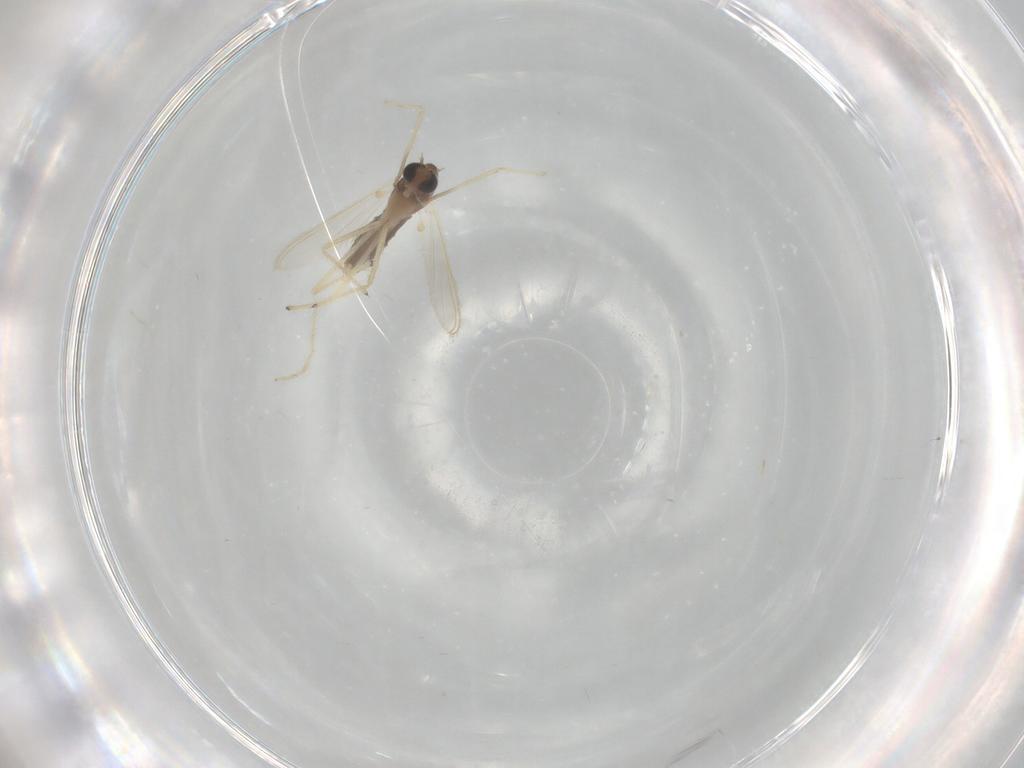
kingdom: Animalia
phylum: Arthropoda
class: Insecta
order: Diptera
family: Chironomidae
